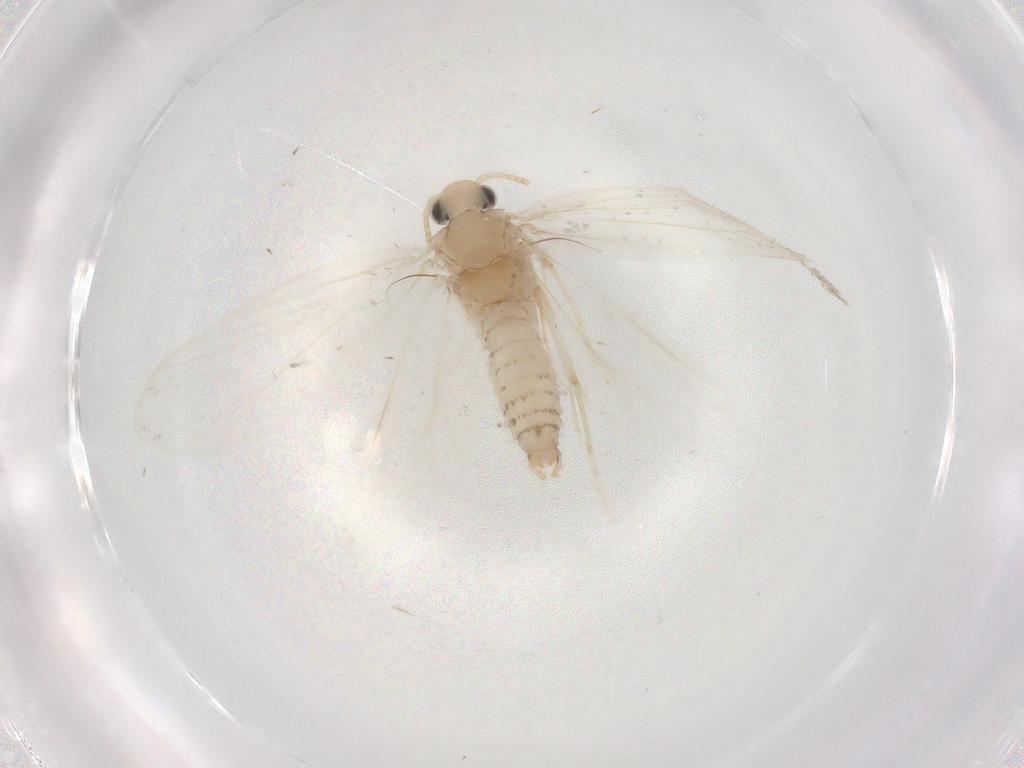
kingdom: Animalia
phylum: Arthropoda
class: Insecta
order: Lepidoptera
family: Psychidae
